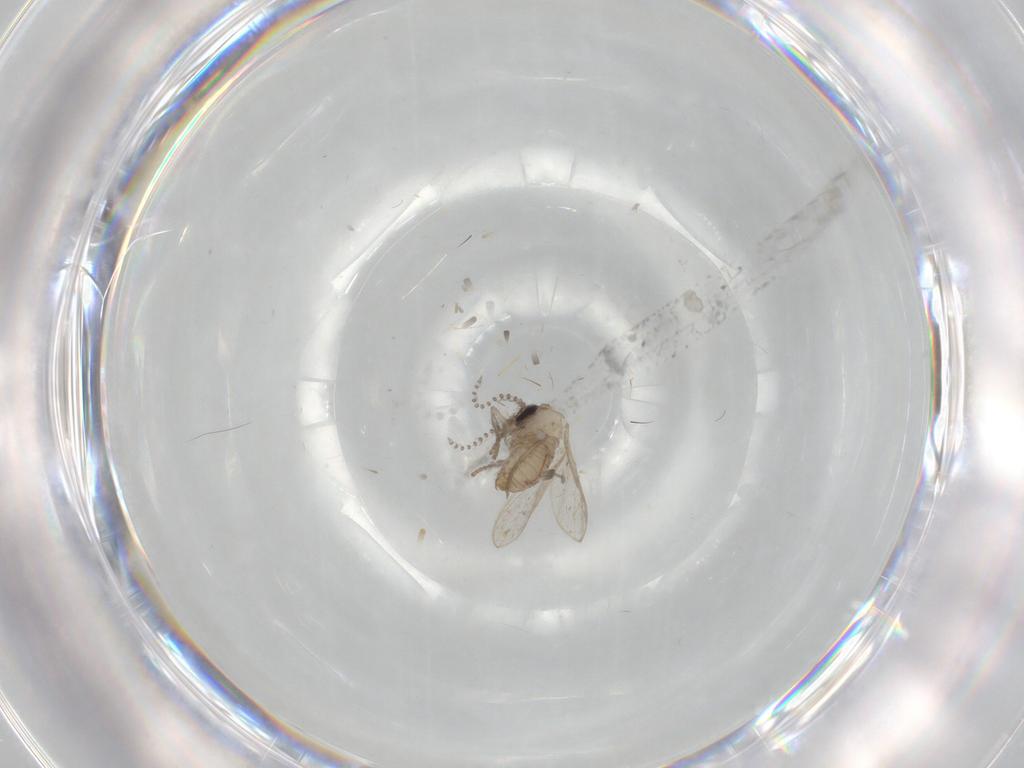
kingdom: Animalia
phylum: Arthropoda
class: Insecta
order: Diptera
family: Psychodidae
